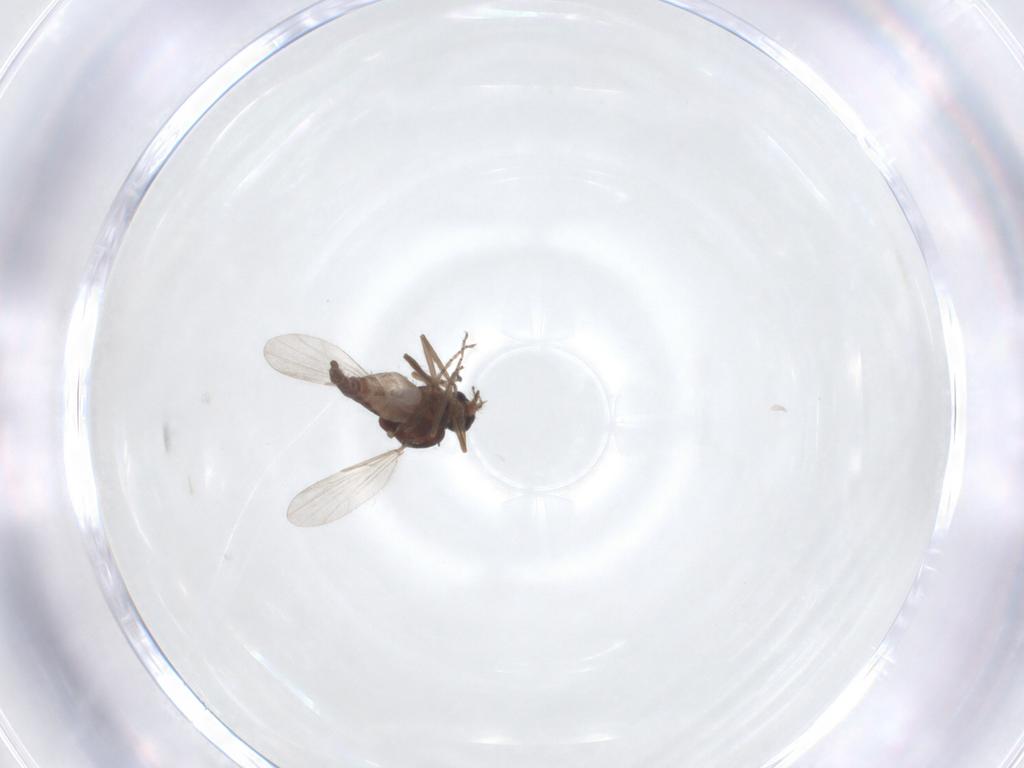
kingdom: Animalia
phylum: Arthropoda
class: Insecta
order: Diptera
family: Ceratopogonidae
